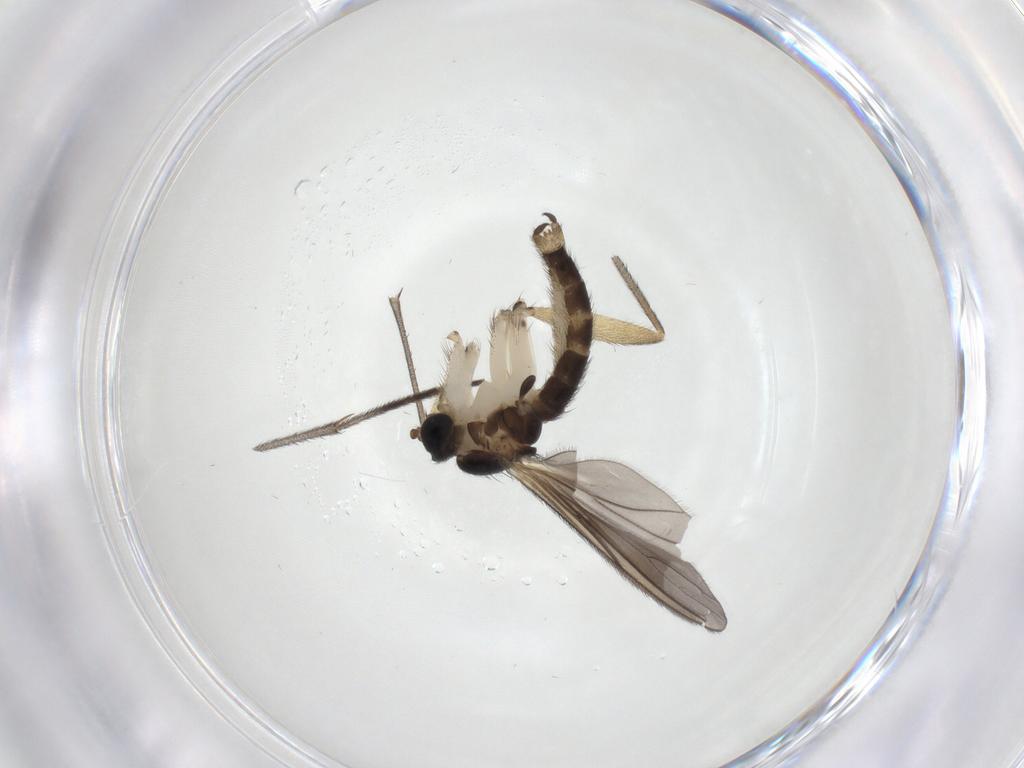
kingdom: Animalia
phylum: Arthropoda
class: Insecta
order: Diptera
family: Sciaridae
